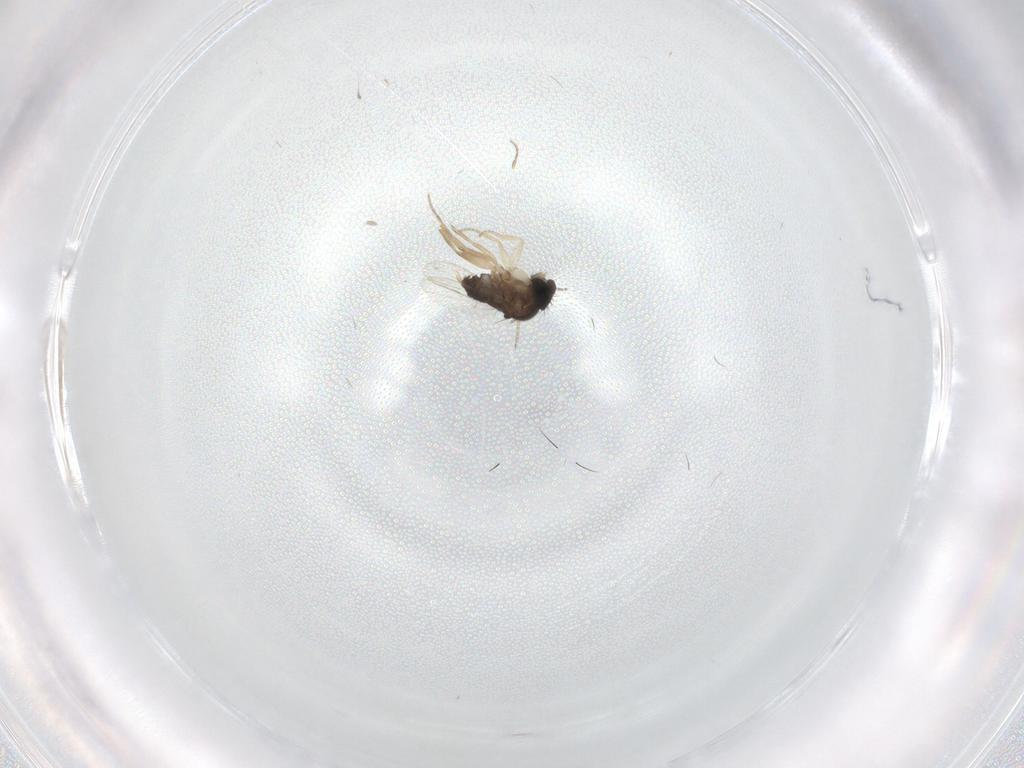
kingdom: Animalia
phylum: Arthropoda
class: Insecta
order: Diptera
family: Phoridae
